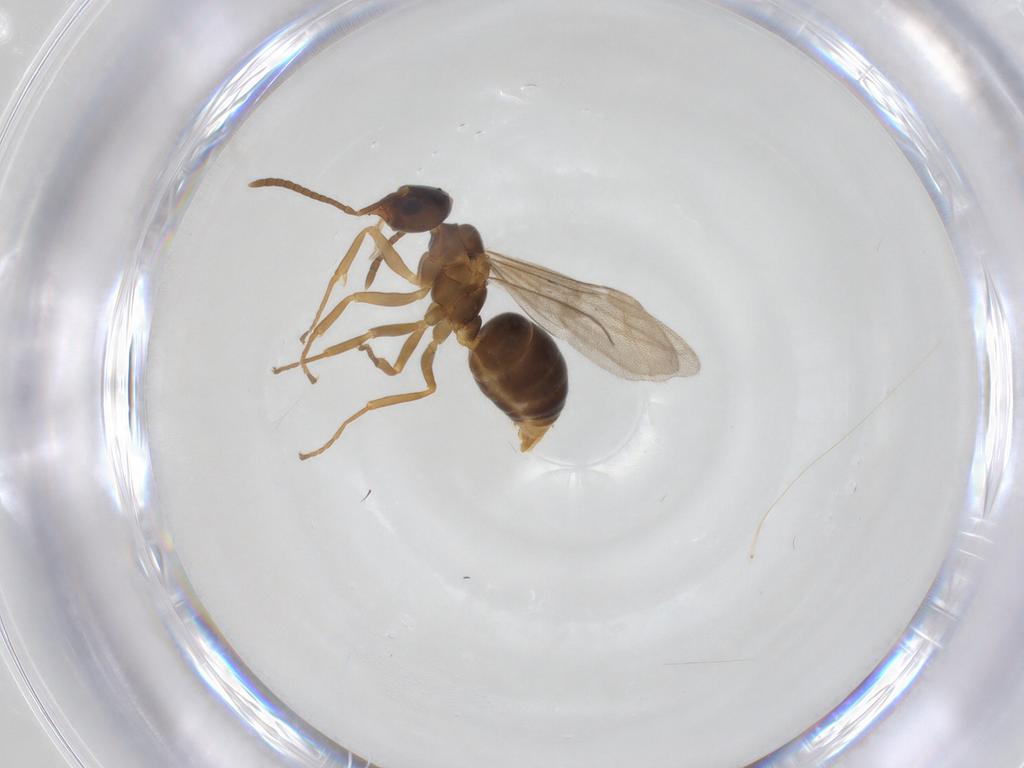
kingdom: Animalia
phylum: Arthropoda
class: Insecta
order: Hymenoptera
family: Formicidae
